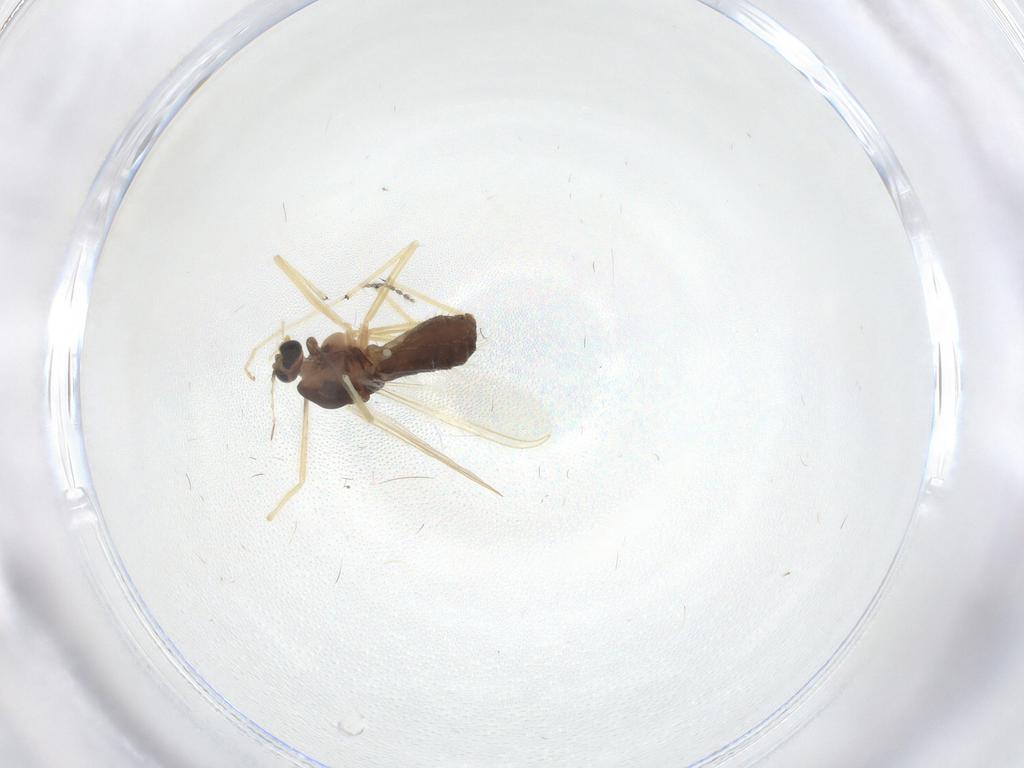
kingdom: Animalia
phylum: Arthropoda
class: Insecta
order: Diptera
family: Chironomidae
